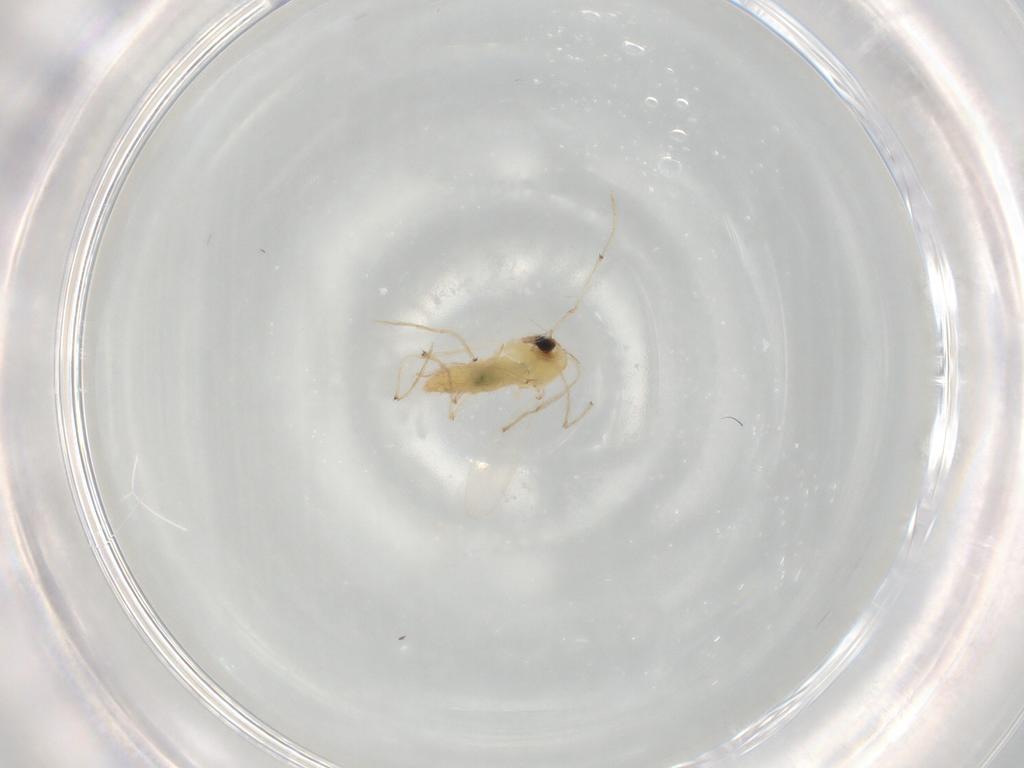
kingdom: Animalia
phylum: Arthropoda
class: Insecta
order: Diptera
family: Chironomidae
